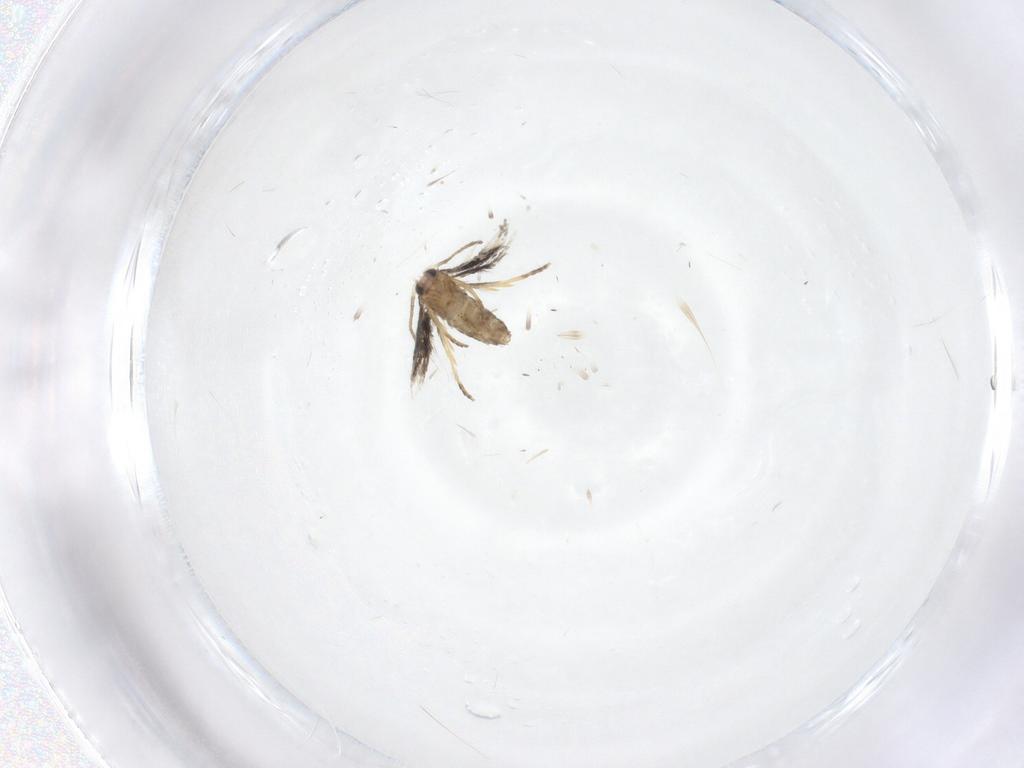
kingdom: Animalia
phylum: Arthropoda
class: Insecta
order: Lepidoptera
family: Nepticulidae
